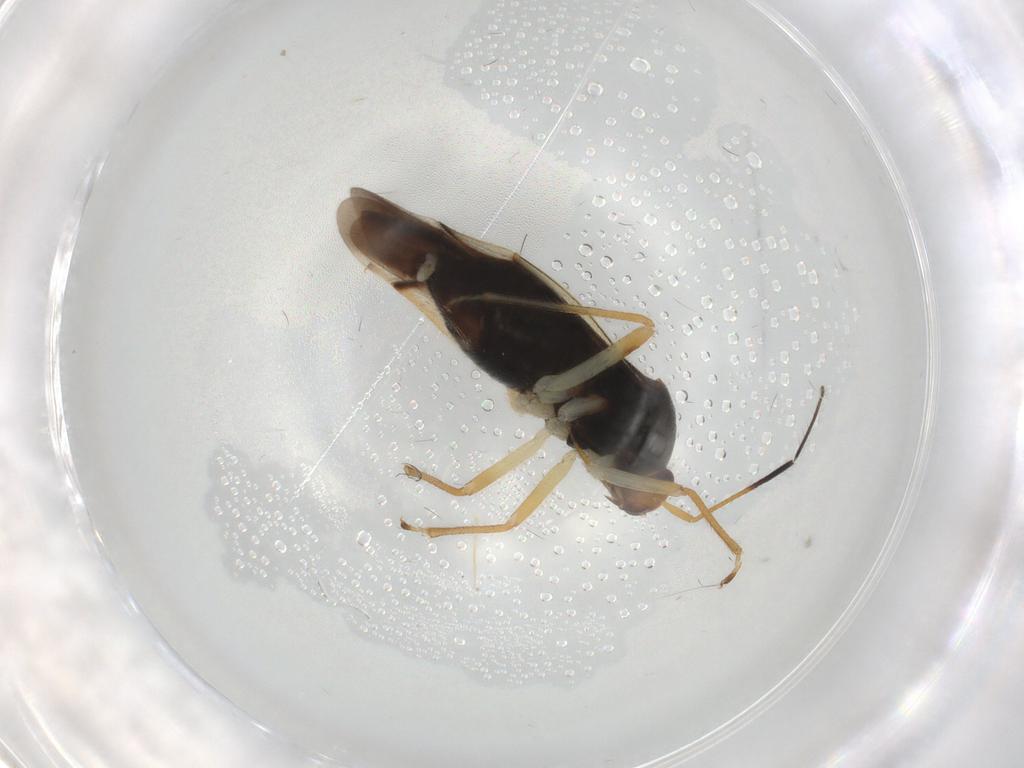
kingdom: Animalia
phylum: Arthropoda
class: Insecta
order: Hemiptera
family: Miridae
